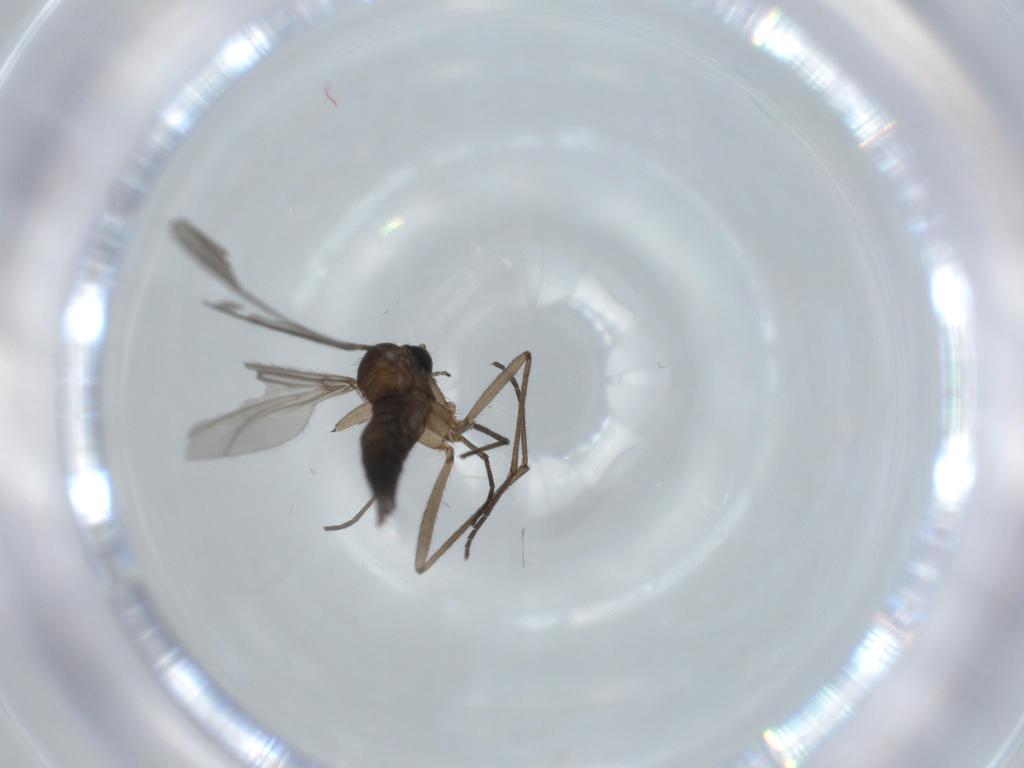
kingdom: Animalia
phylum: Arthropoda
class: Insecta
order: Diptera
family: Sciaridae
